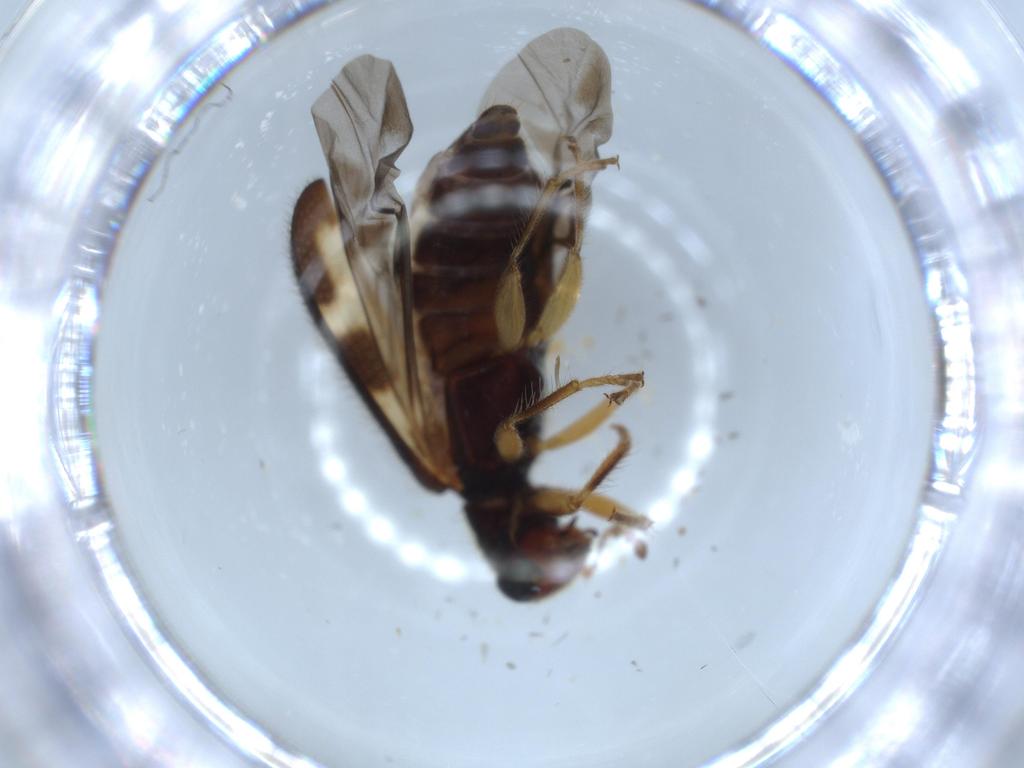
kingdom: Animalia
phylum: Arthropoda
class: Insecta
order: Coleoptera
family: Cleridae
